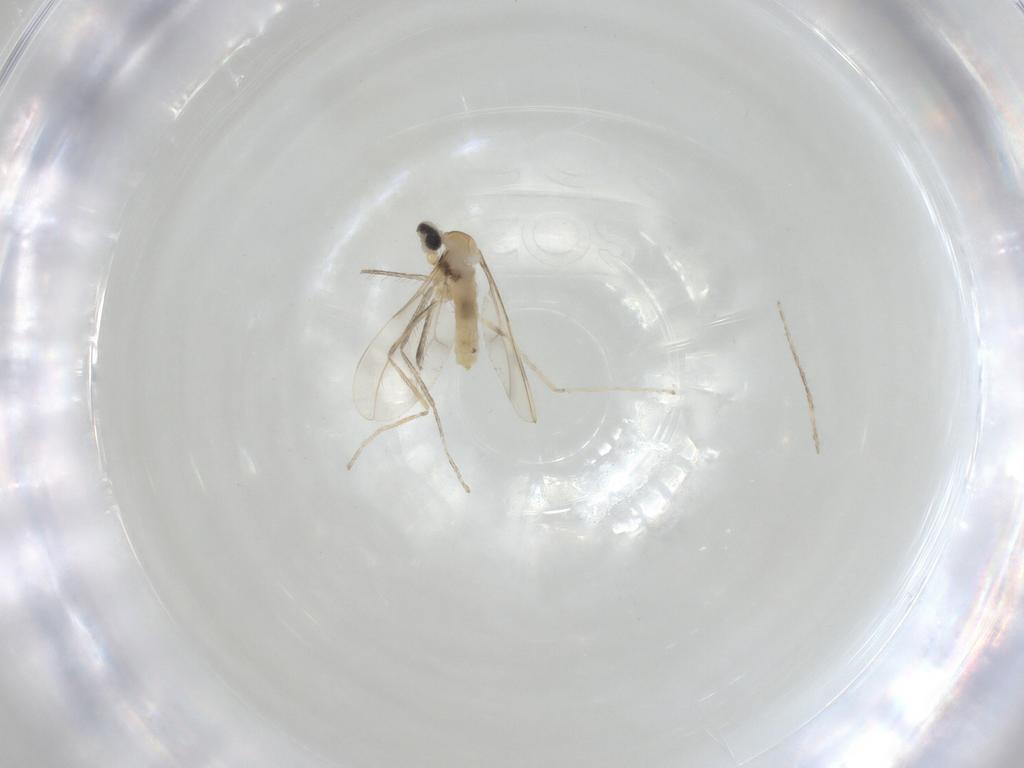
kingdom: Animalia
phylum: Arthropoda
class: Insecta
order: Diptera
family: Cecidomyiidae
